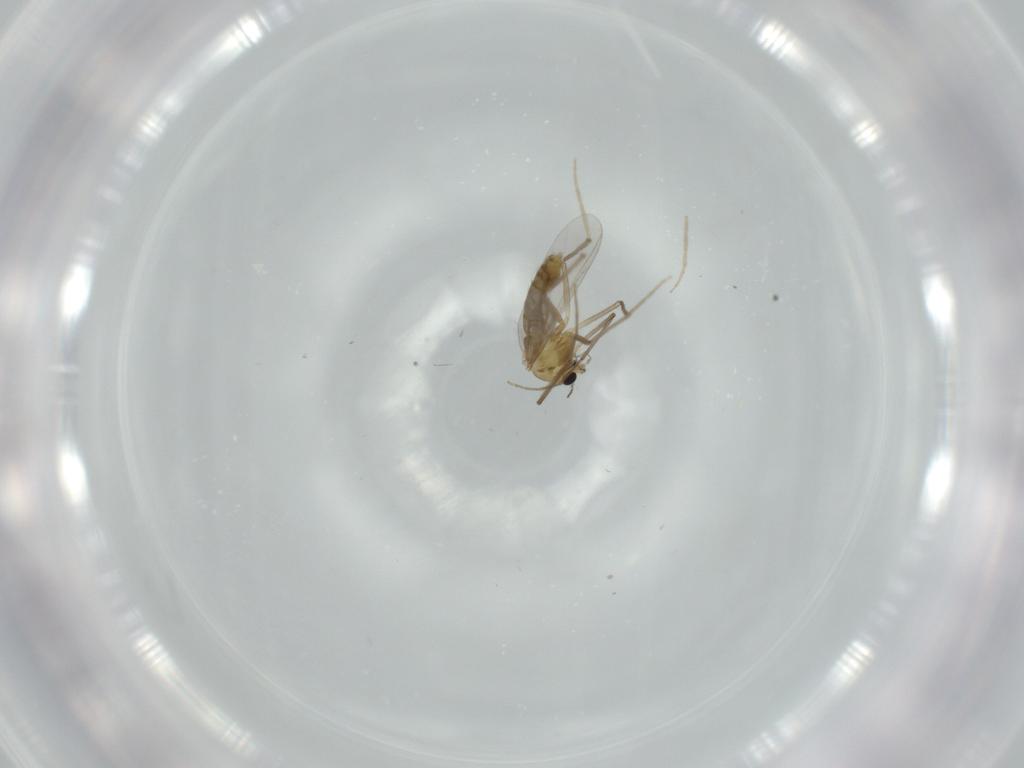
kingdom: Animalia
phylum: Arthropoda
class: Insecta
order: Diptera
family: Chironomidae
